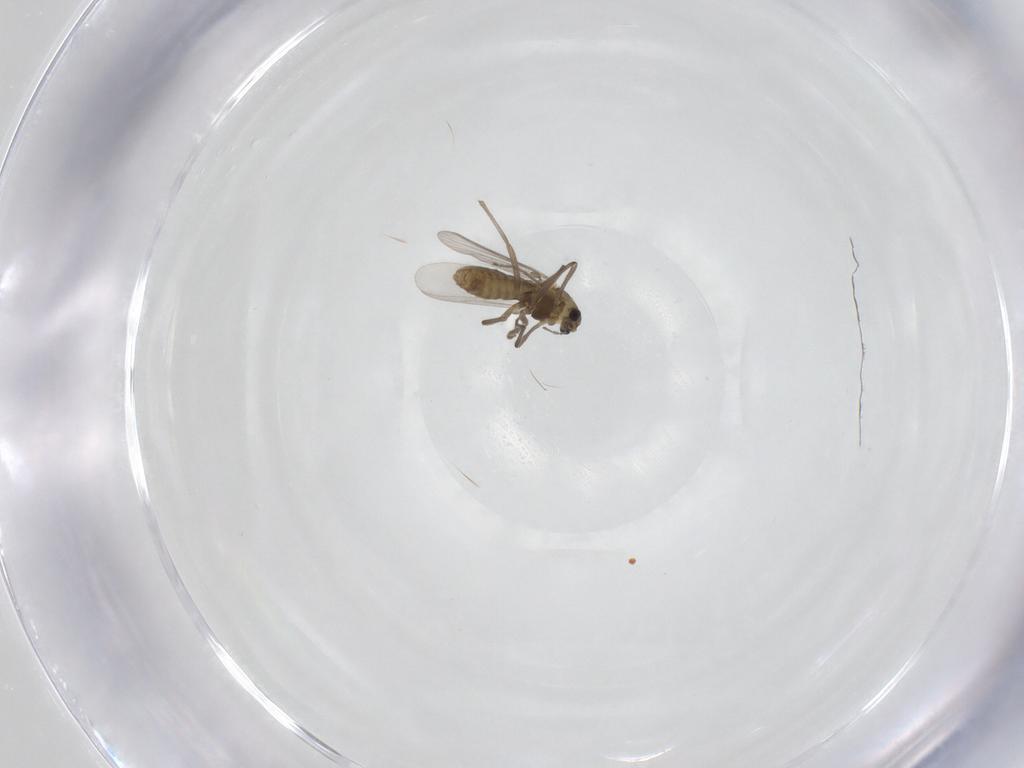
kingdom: Animalia
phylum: Arthropoda
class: Insecta
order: Diptera
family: Chironomidae
